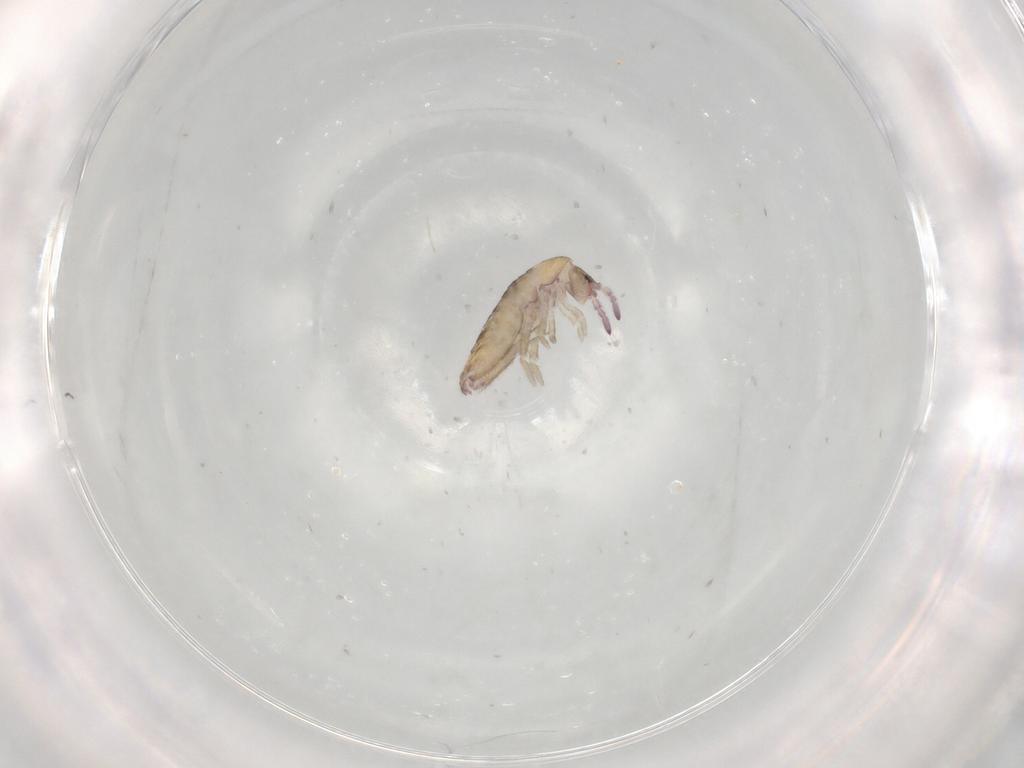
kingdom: Animalia
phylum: Arthropoda
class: Collembola
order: Entomobryomorpha
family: Entomobryidae
